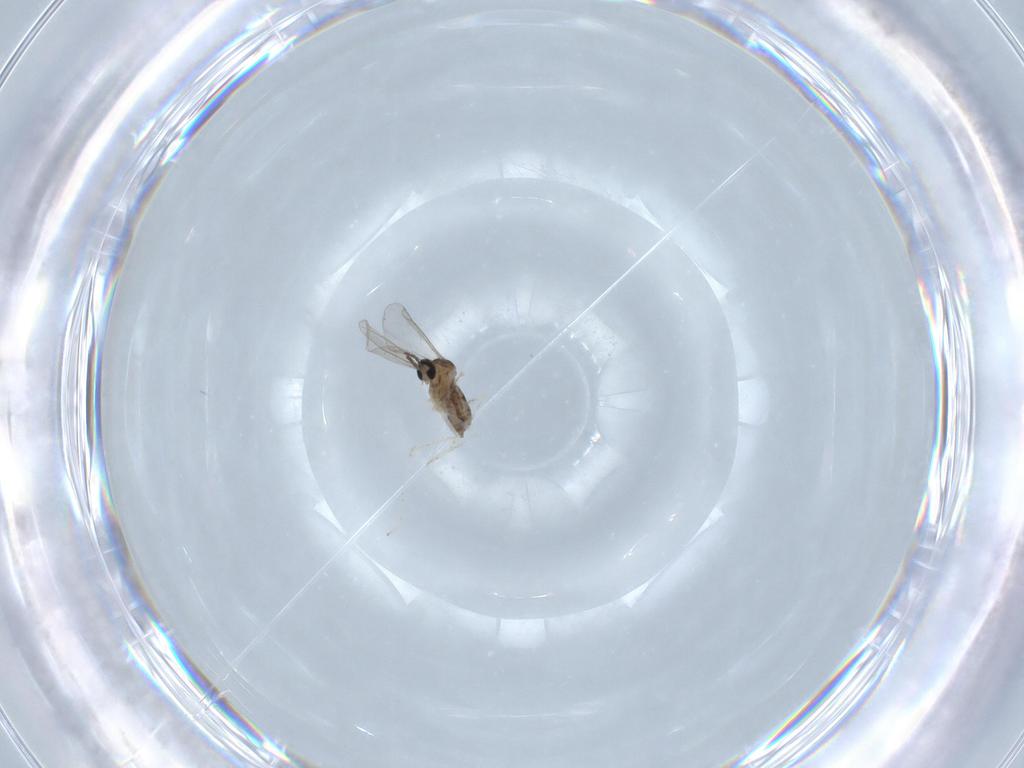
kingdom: Animalia
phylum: Arthropoda
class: Insecta
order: Diptera
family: Cecidomyiidae
